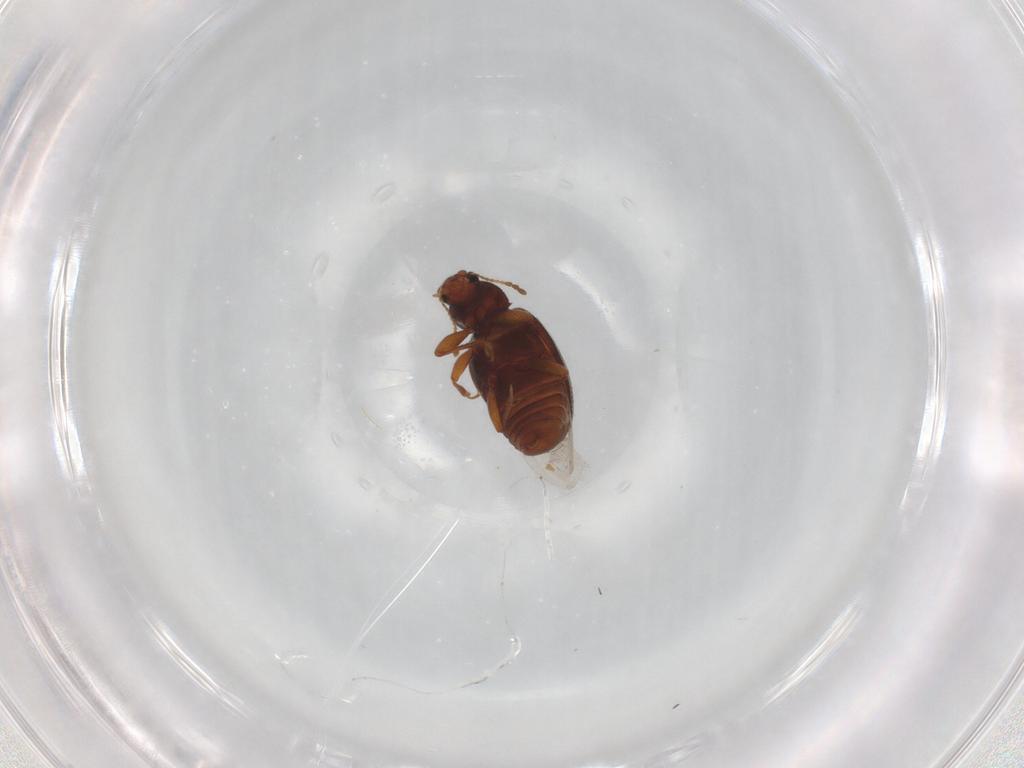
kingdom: Animalia
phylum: Arthropoda
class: Insecta
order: Coleoptera
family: Latridiidae
